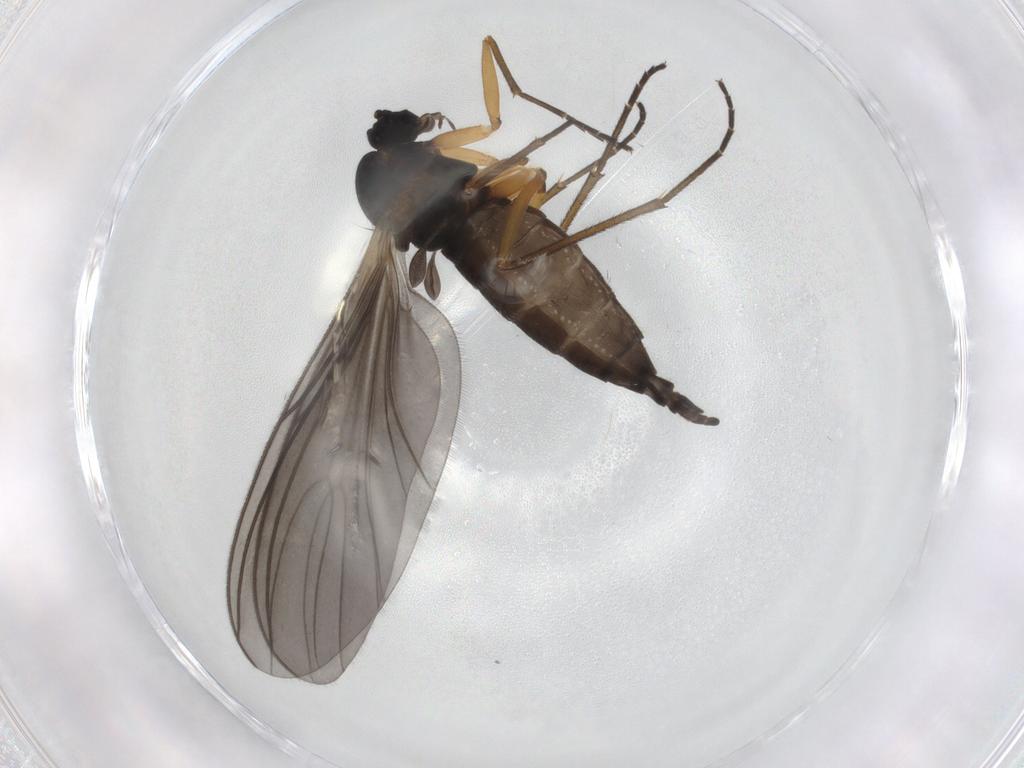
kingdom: Animalia
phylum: Arthropoda
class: Insecta
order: Diptera
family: Sciaridae
